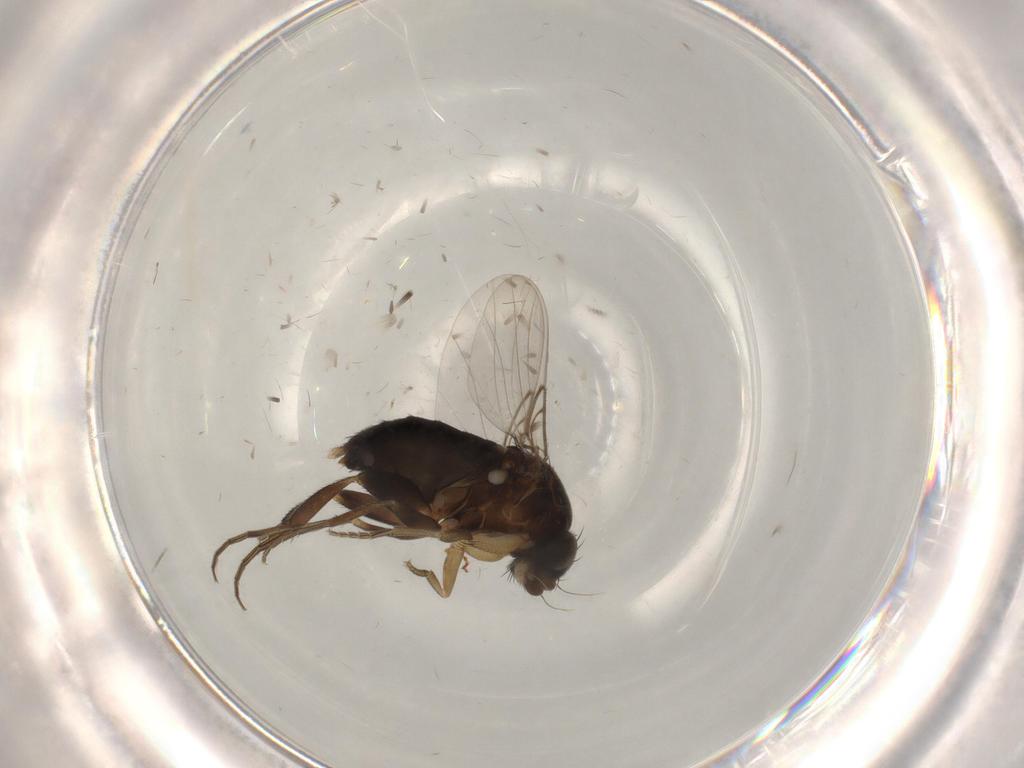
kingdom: Animalia
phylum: Arthropoda
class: Insecta
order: Diptera
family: Phoridae
